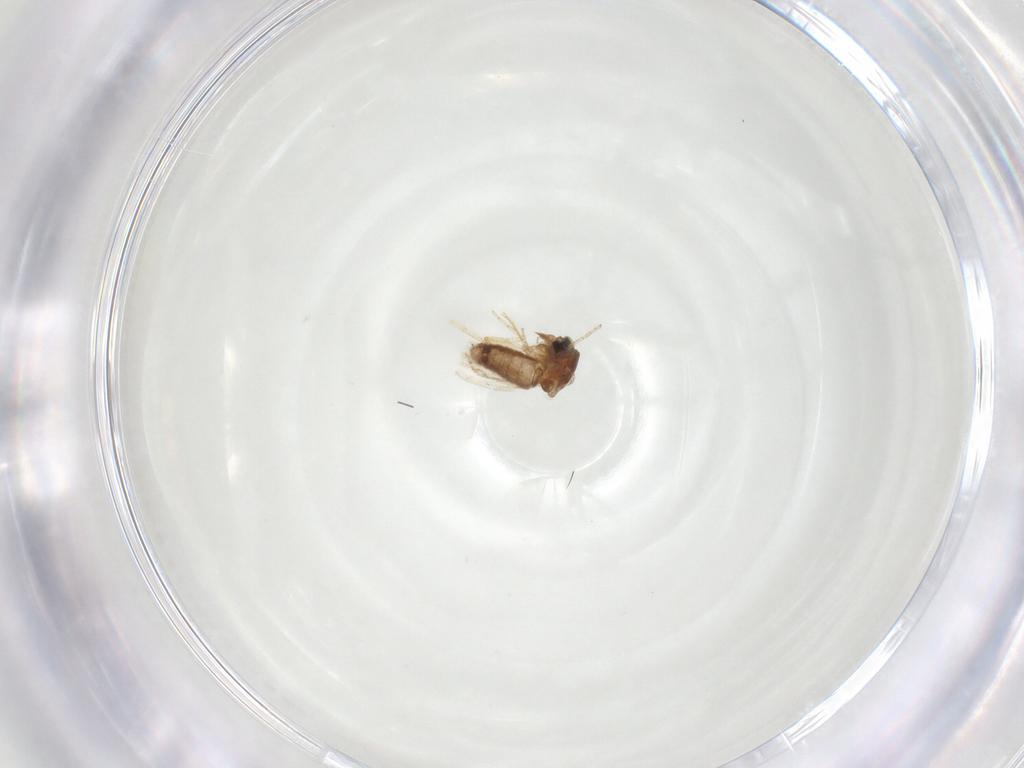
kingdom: Animalia
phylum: Arthropoda
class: Insecta
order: Diptera
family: Ceratopogonidae
